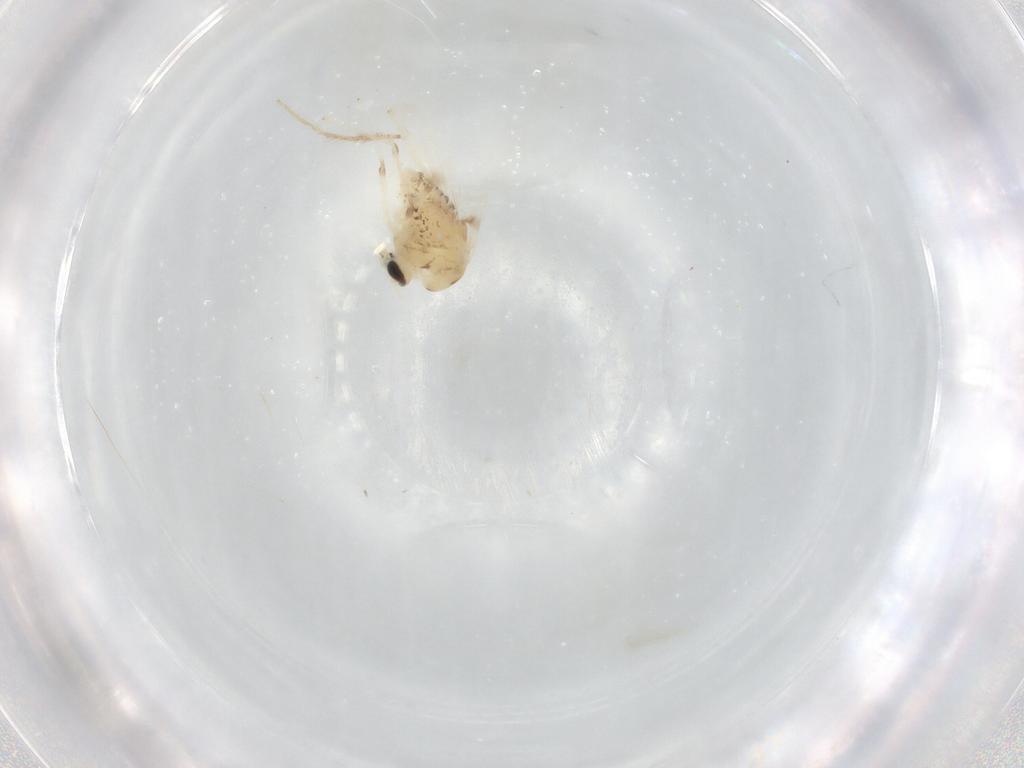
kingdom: Animalia
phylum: Arthropoda
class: Insecta
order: Diptera
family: Chironomidae
